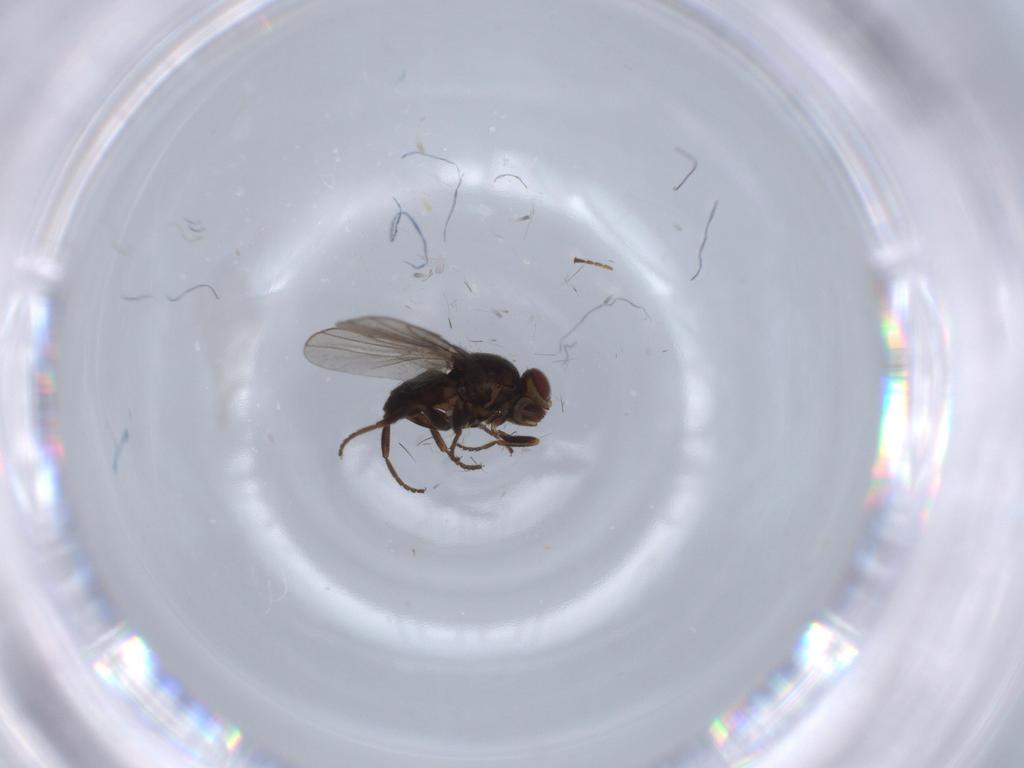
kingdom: Animalia
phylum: Arthropoda
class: Insecta
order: Diptera
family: Chloropidae
